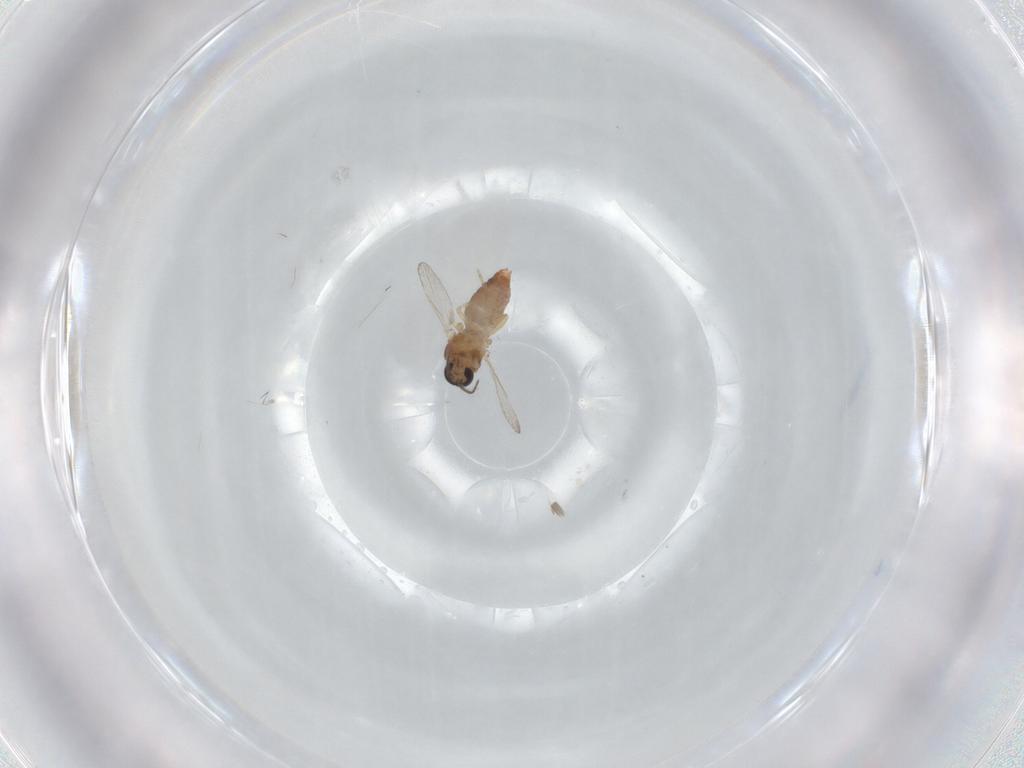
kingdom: Animalia
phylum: Arthropoda
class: Insecta
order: Diptera
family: Ceratopogonidae
